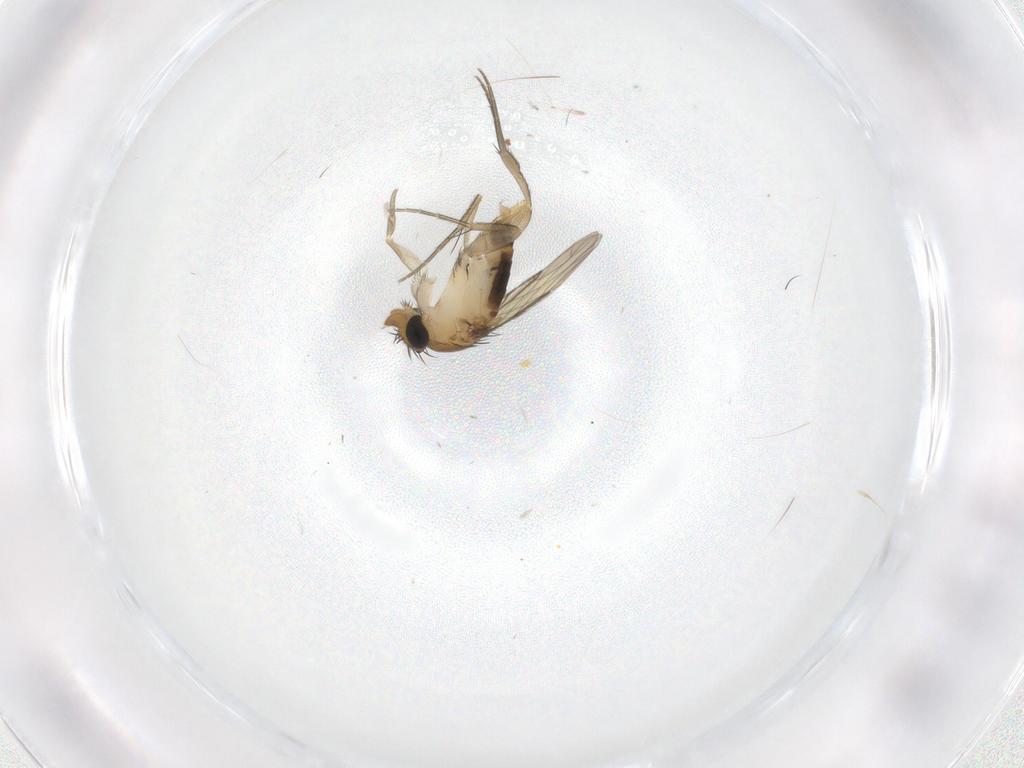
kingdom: Animalia
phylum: Arthropoda
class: Insecta
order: Diptera
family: Phoridae
